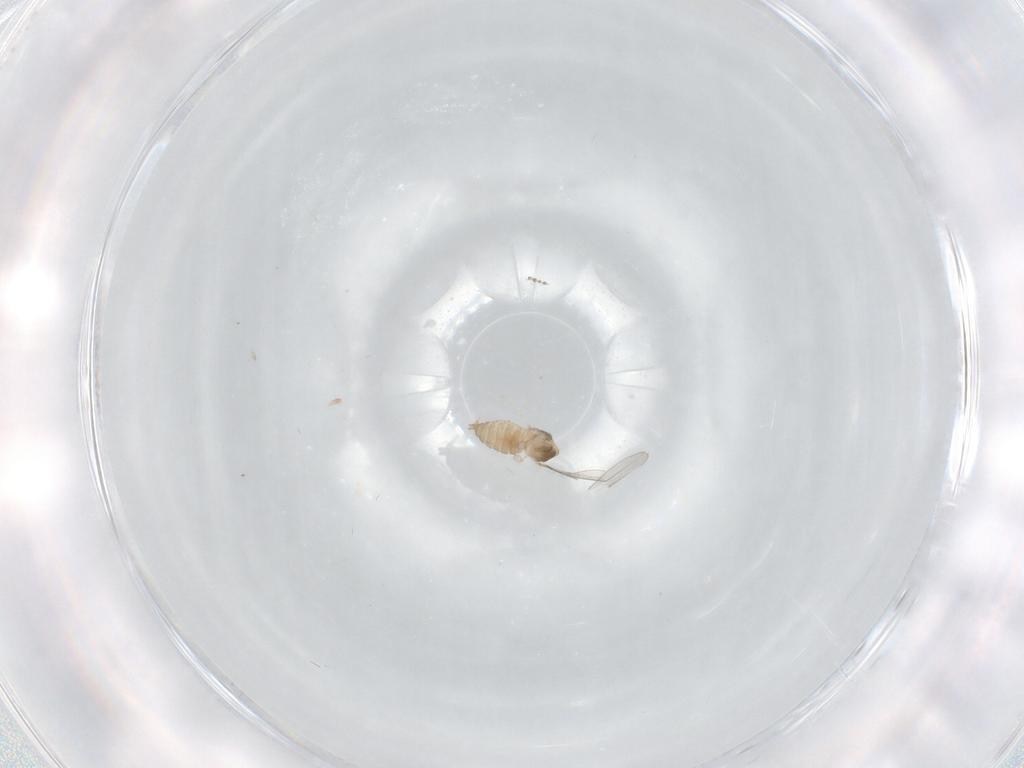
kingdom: Animalia
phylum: Arthropoda
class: Insecta
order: Diptera
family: Cecidomyiidae
